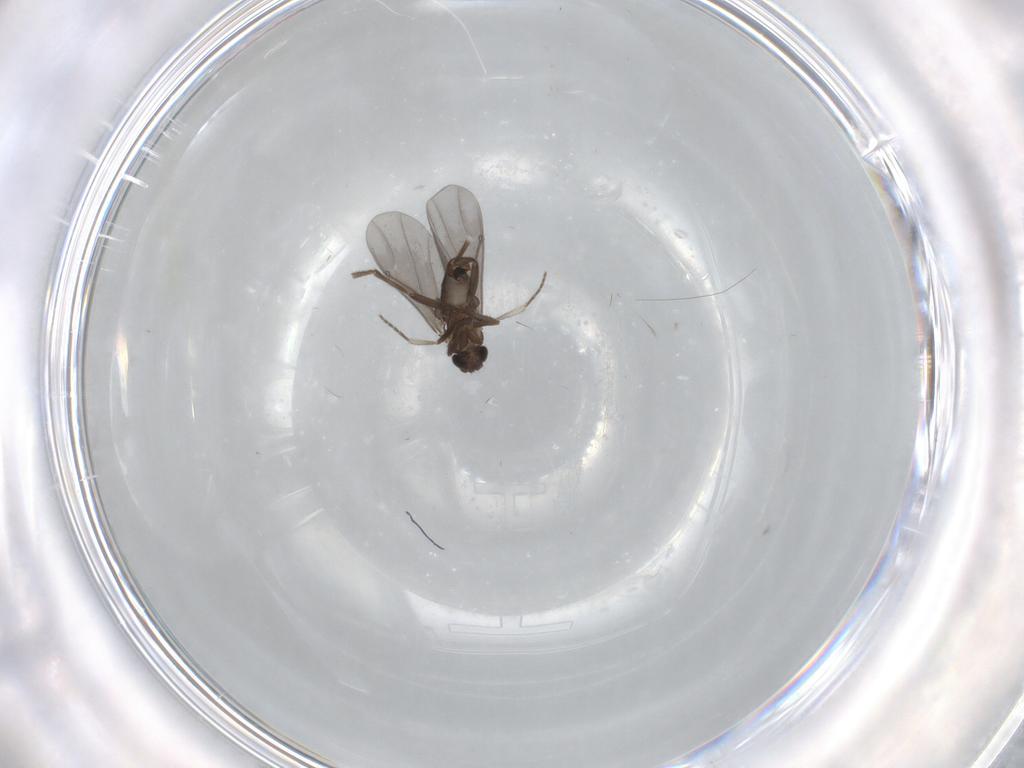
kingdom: Animalia
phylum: Arthropoda
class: Insecta
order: Diptera
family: Phoridae
